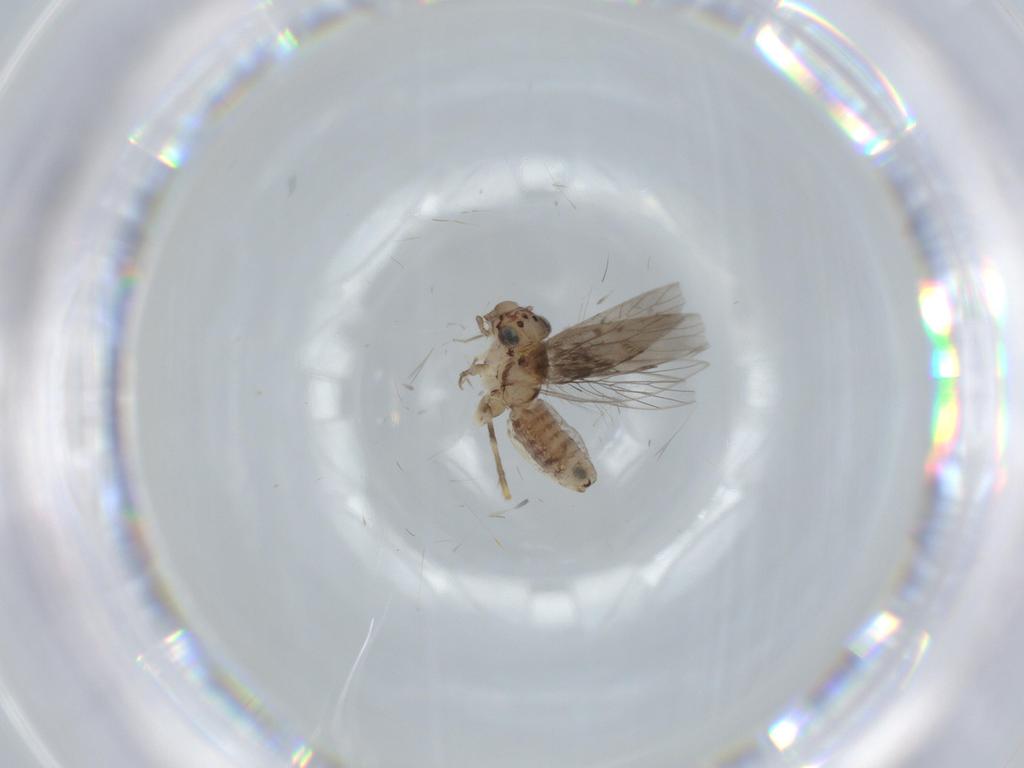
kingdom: Animalia
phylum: Arthropoda
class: Insecta
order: Psocodea
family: Lepidopsocidae
